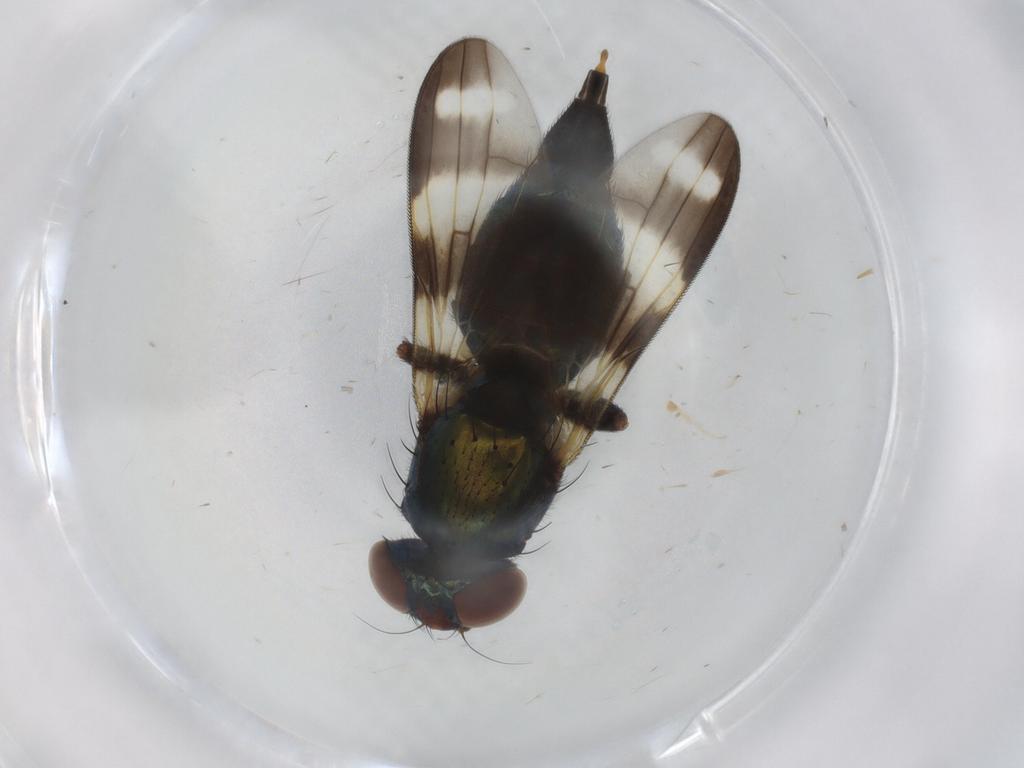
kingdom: Animalia
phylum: Arthropoda
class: Insecta
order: Diptera
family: Ulidiidae
